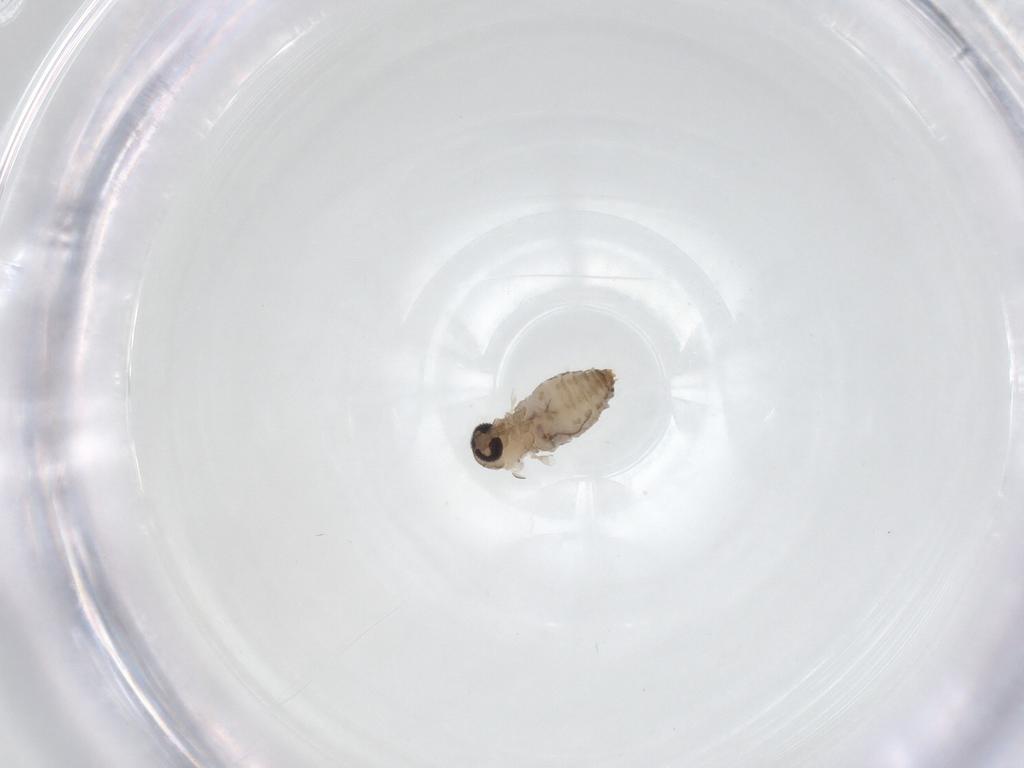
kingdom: Animalia
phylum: Arthropoda
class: Insecta
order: Diptera
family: Psychodidae
